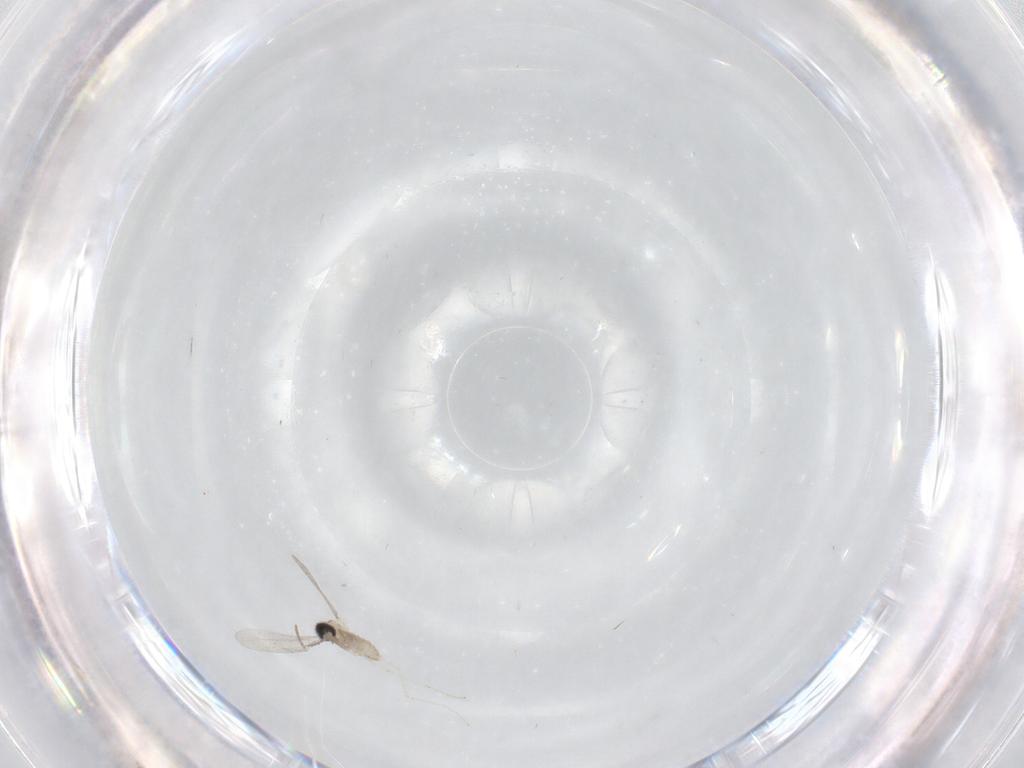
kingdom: Animalia
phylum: Arthropoda
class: Insecta
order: Diptera
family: Cecidomyiidae
